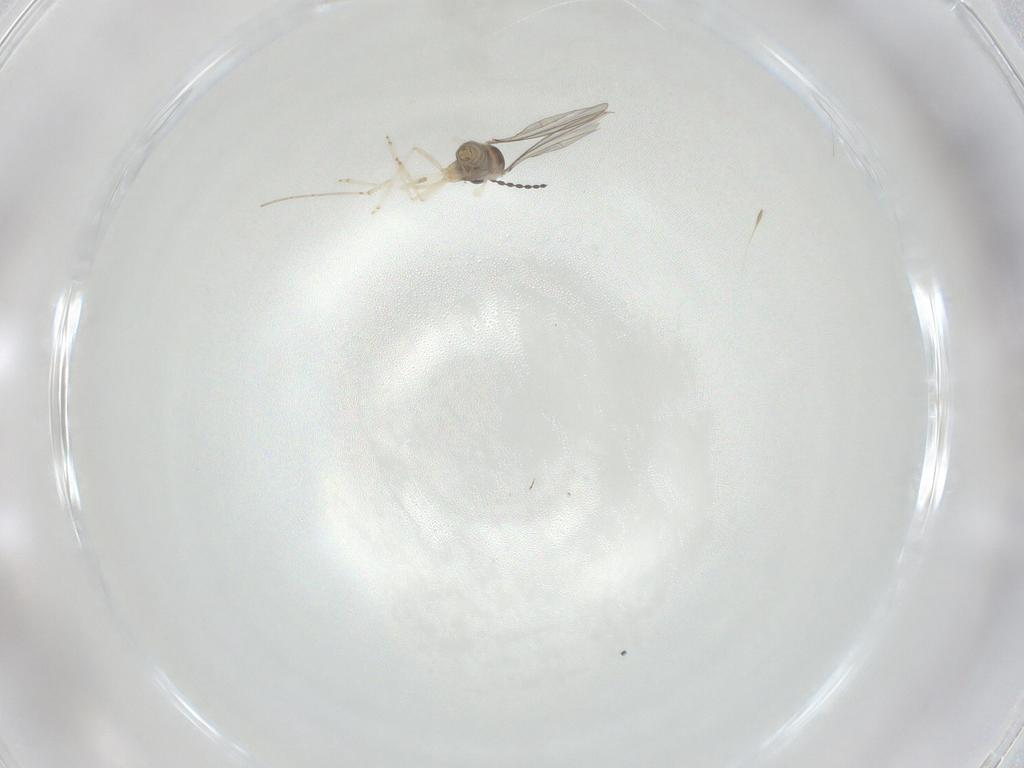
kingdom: Animalia
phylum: Arthropoda
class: Insecta
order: Diptera
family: Cecidomyiidae
